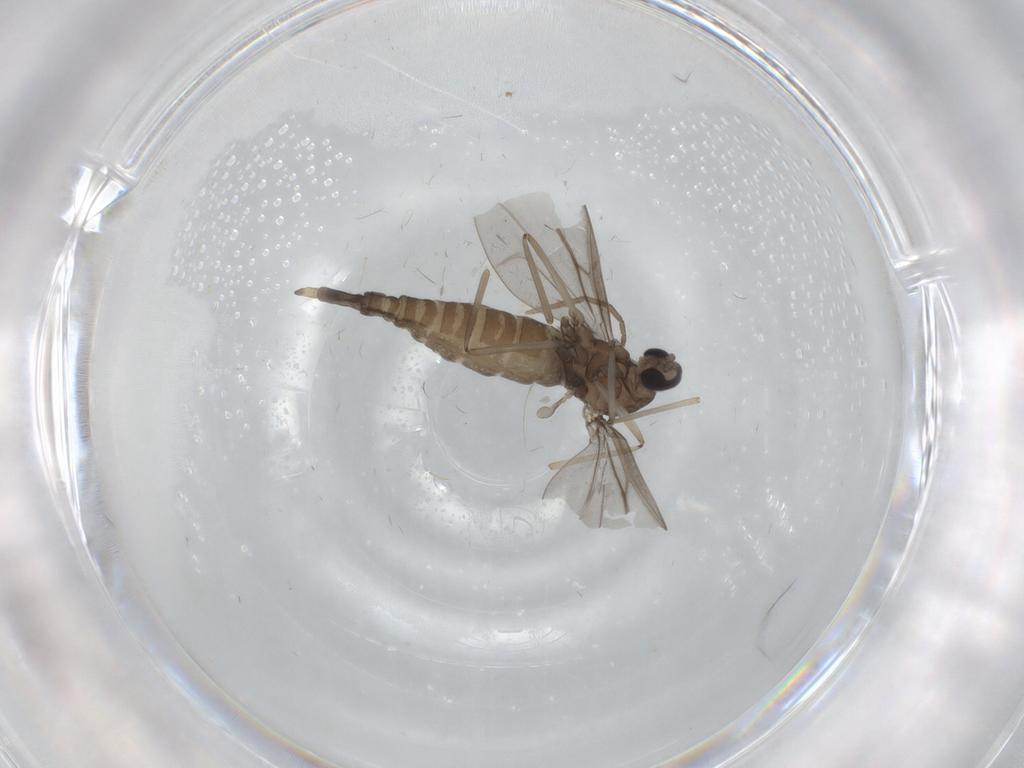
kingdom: Animalia
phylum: Arthropoda
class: Insecta
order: Diptera
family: Cecidomyiidae
